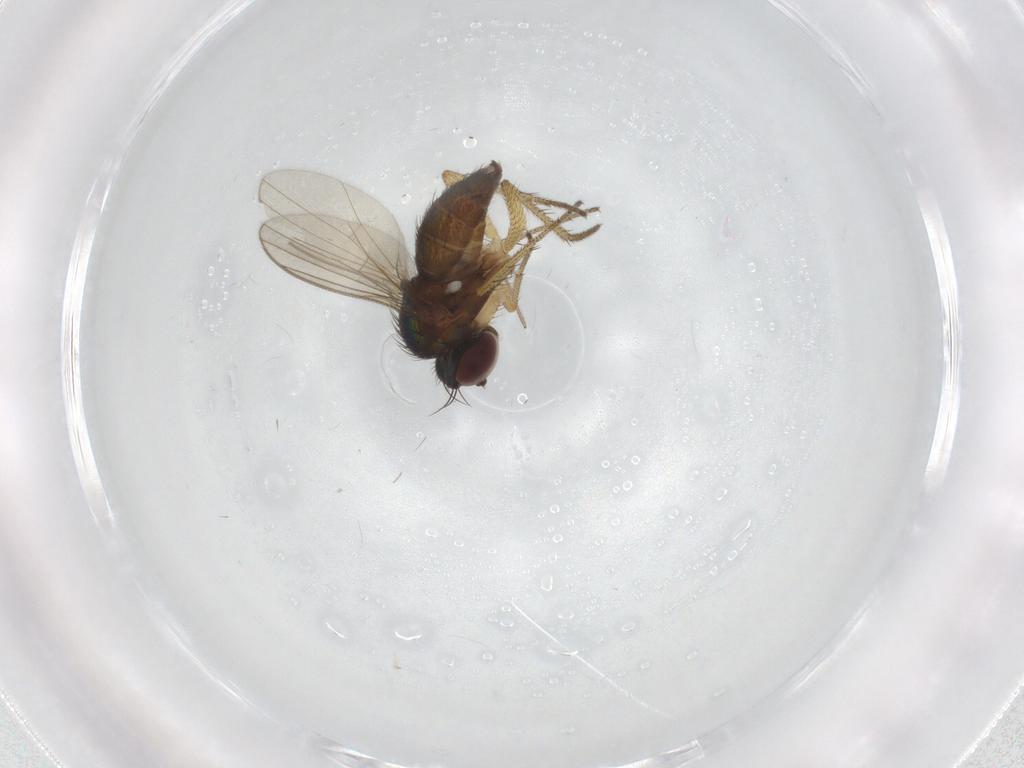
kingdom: Animalia
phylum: Arthropoda
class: Insecta
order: Diptera
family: Dolichopodidae
